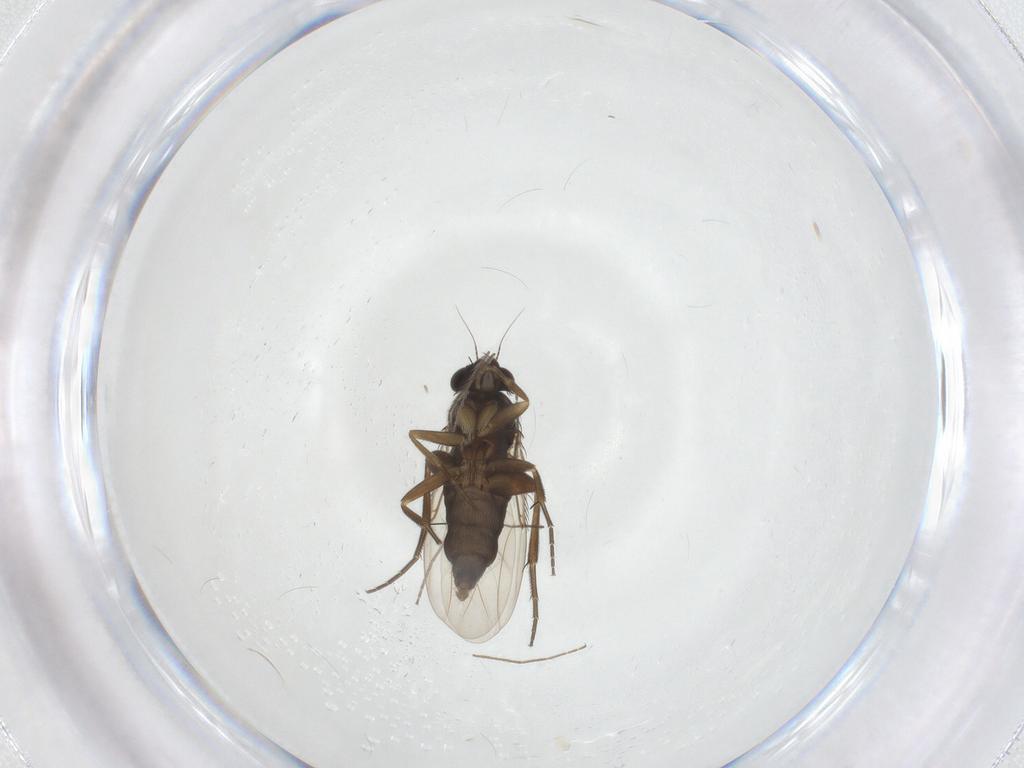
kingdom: Animalia
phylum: Arthropoda
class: Insecta
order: Diptera
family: Phoridae
